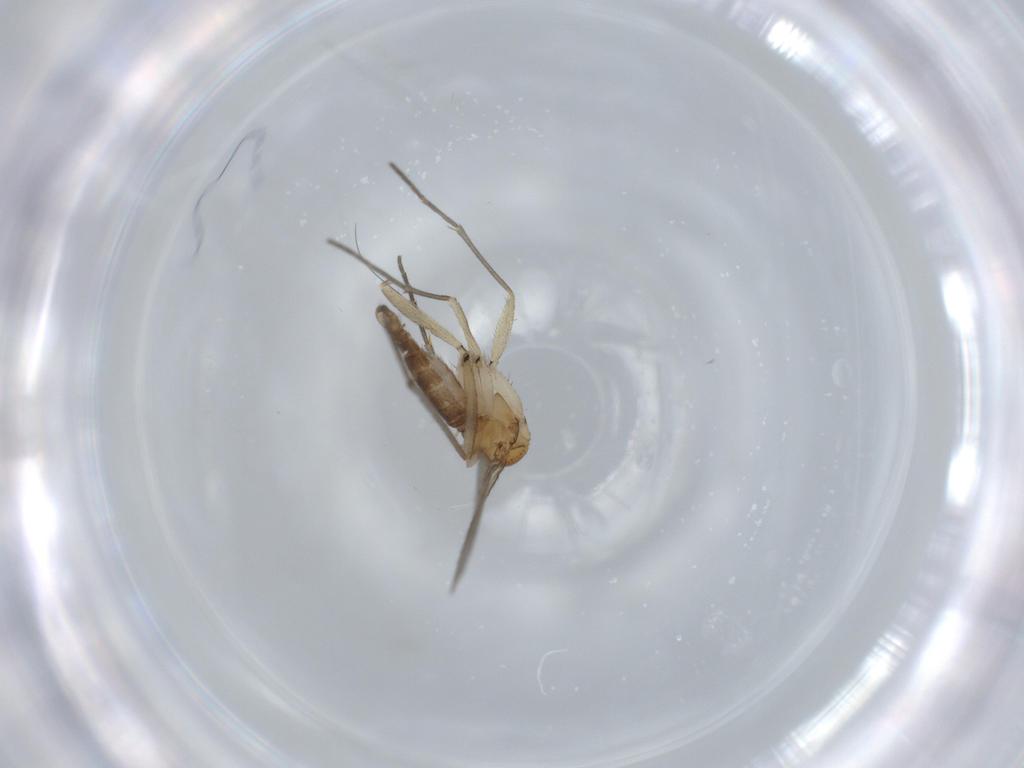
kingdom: Animalia
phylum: Arthropoda
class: Insecta
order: Diptera
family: Sciaridae
